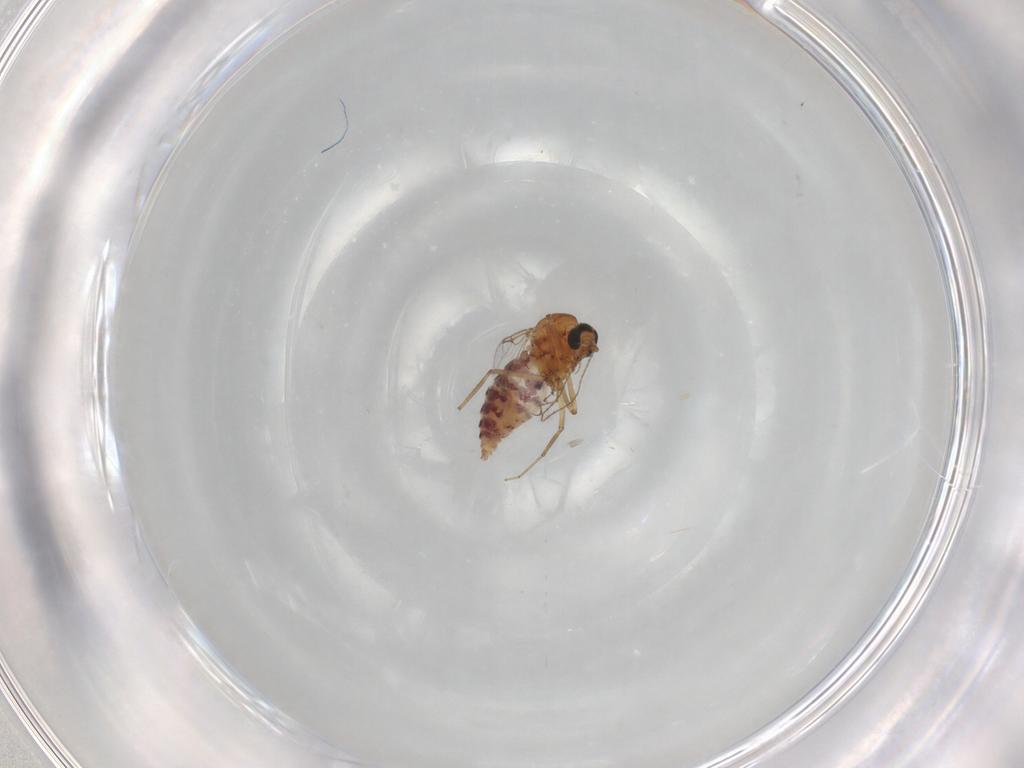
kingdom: Animalia
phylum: Arthropoda
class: Insecta
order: Diptera
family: Ceratopogonidae
